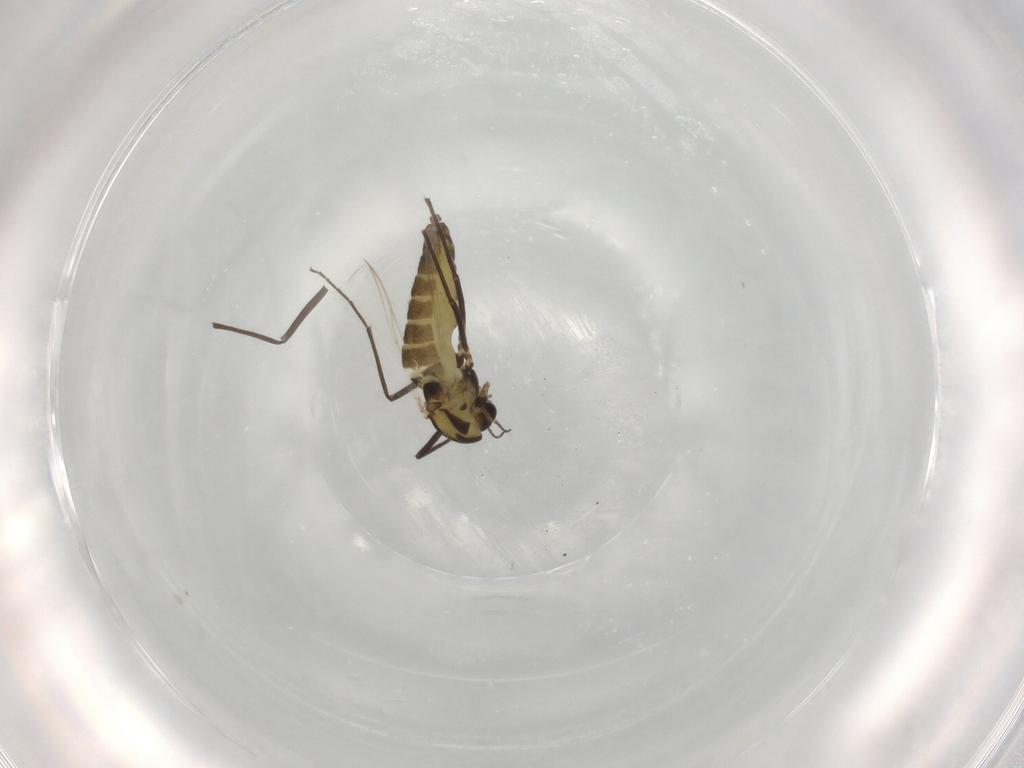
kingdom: Animalia
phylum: Arthropoda
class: Insecta
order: Diptera
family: Chironomidae
